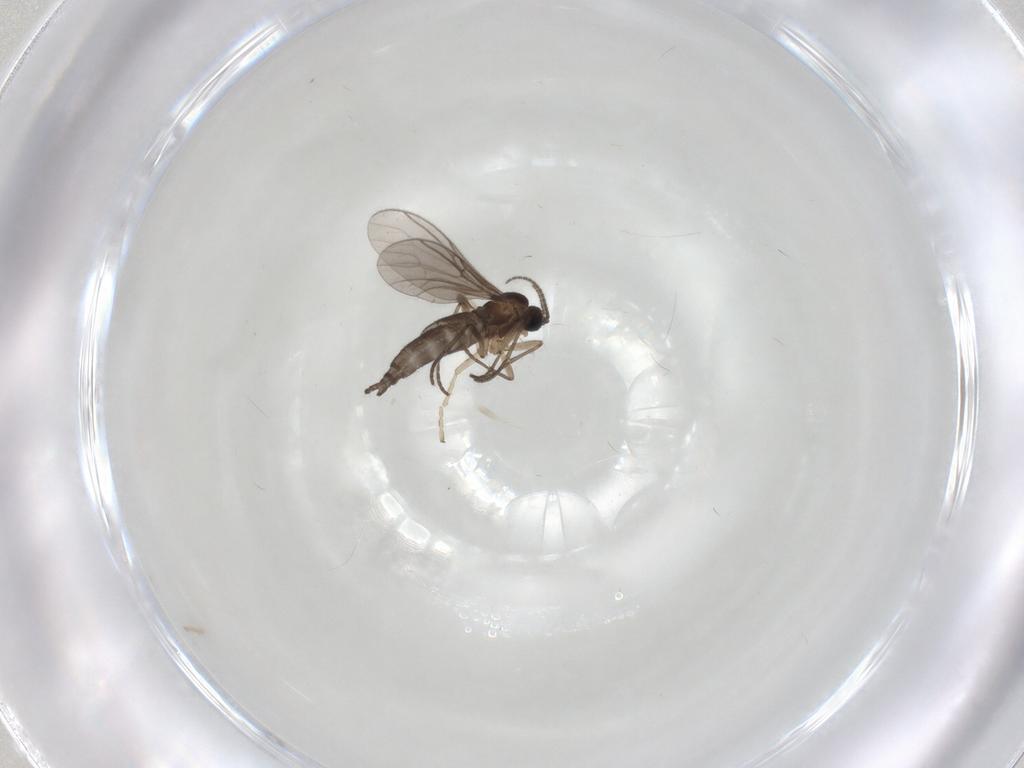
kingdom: Animalia
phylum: Arthropoda
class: Insecta
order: Diptera
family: Sciaridae
